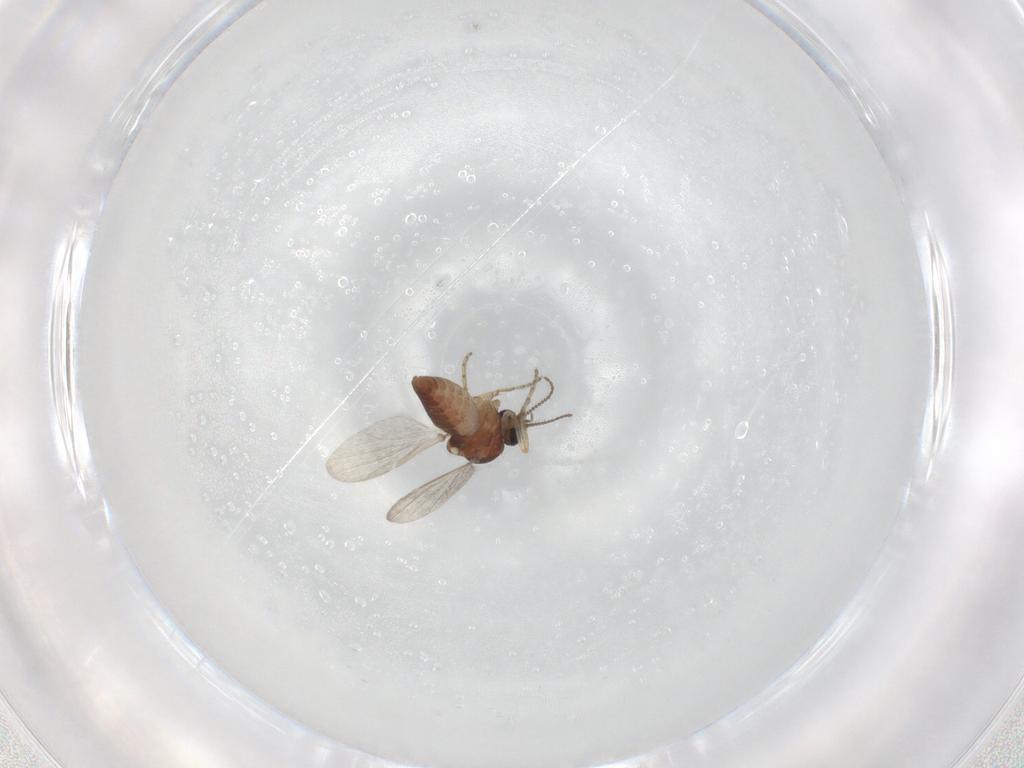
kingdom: Animalia
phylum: Arthropoda
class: Insecta
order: Diptera
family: Ceratopogonidae
